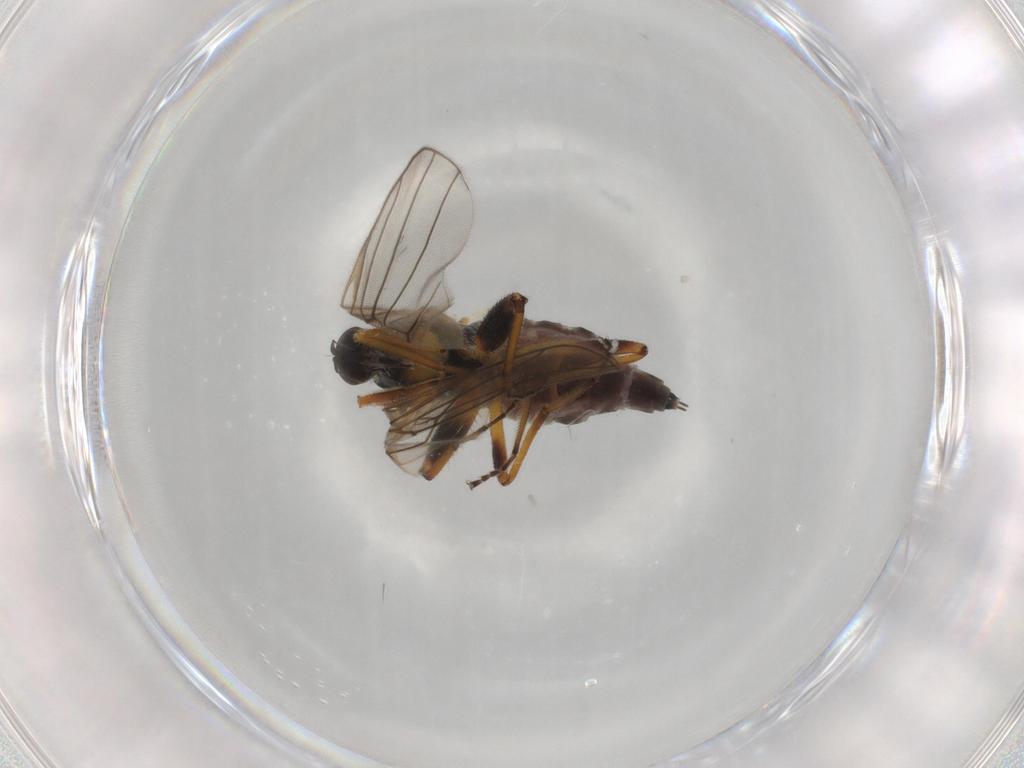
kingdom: Animalia
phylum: Arthropoda
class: Insecta
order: Diptera
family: Hybotidae
